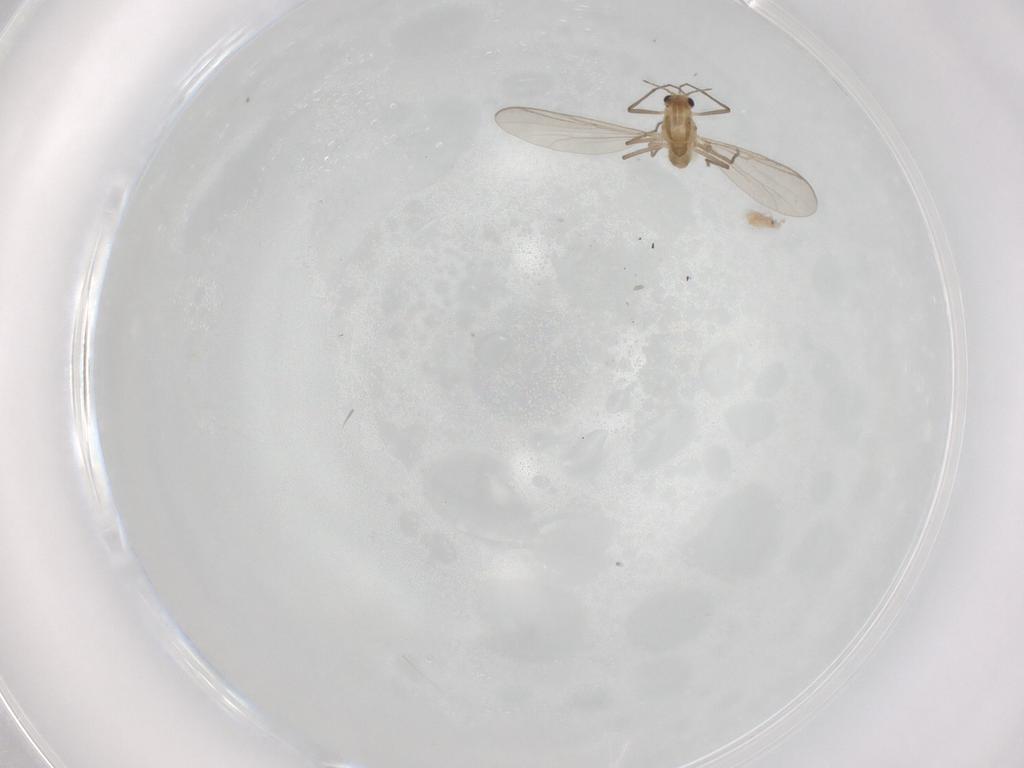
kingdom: Animalia
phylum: Arthropoda
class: Insecta
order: Diptera
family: Chironomidae
